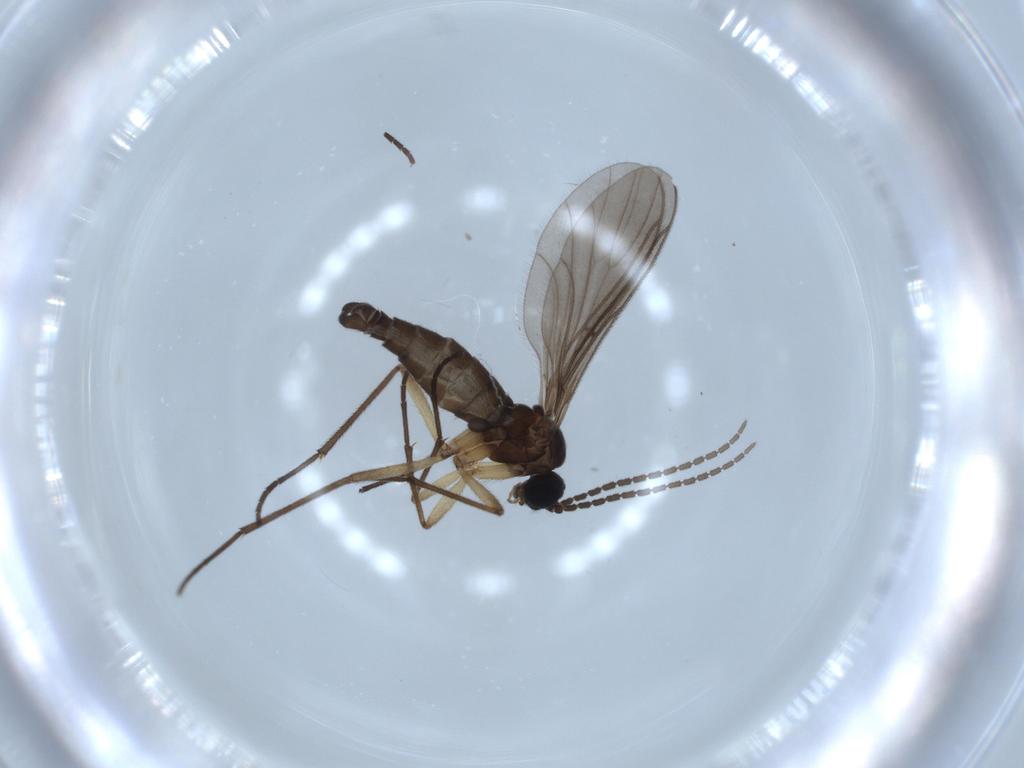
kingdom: Animalia
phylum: Arthropoda
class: Insecta
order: Diptera
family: Sciaridae
